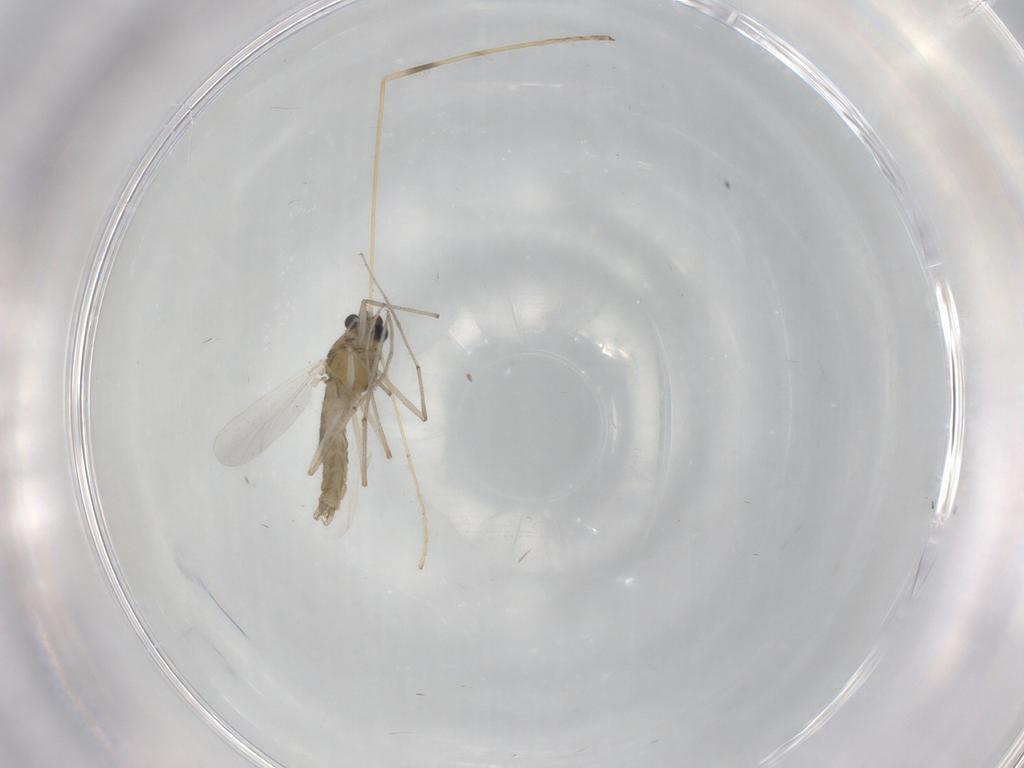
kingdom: Animalia
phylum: Arthropoda
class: Insecta
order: Diptera
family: Chironomidae
